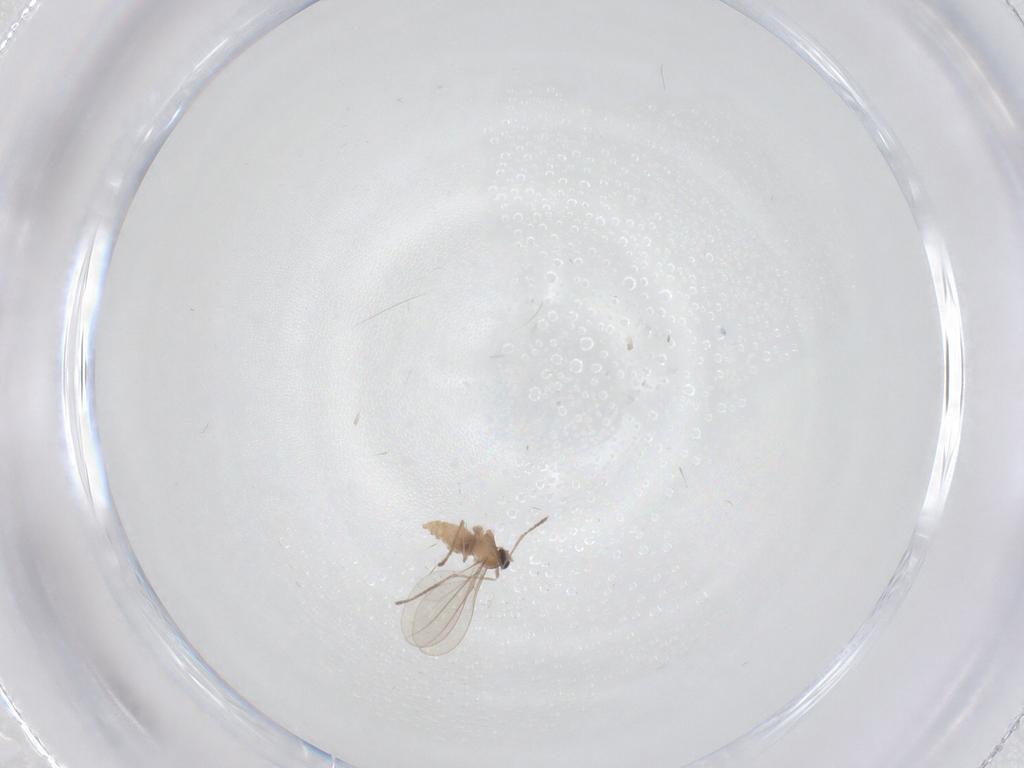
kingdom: Animalia
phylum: Arthropoda
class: Insecta
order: Diptera
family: Cecidomyiidae
